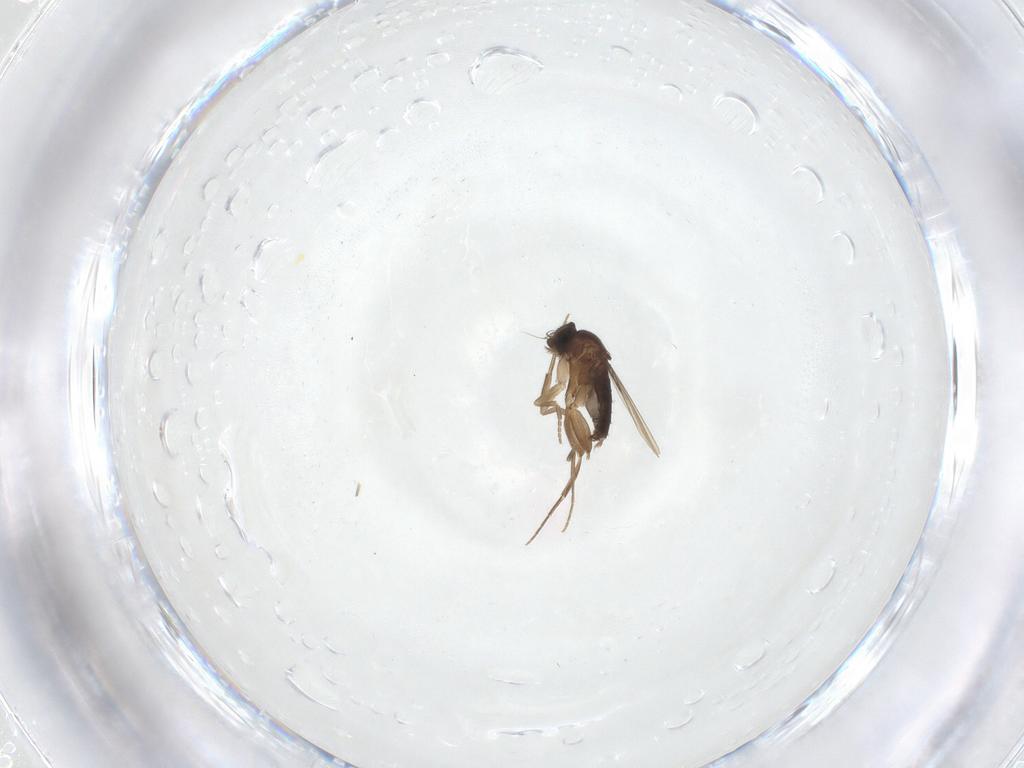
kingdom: Animalia
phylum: Arthropoda
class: Insecta
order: Diptera
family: Phoridae
